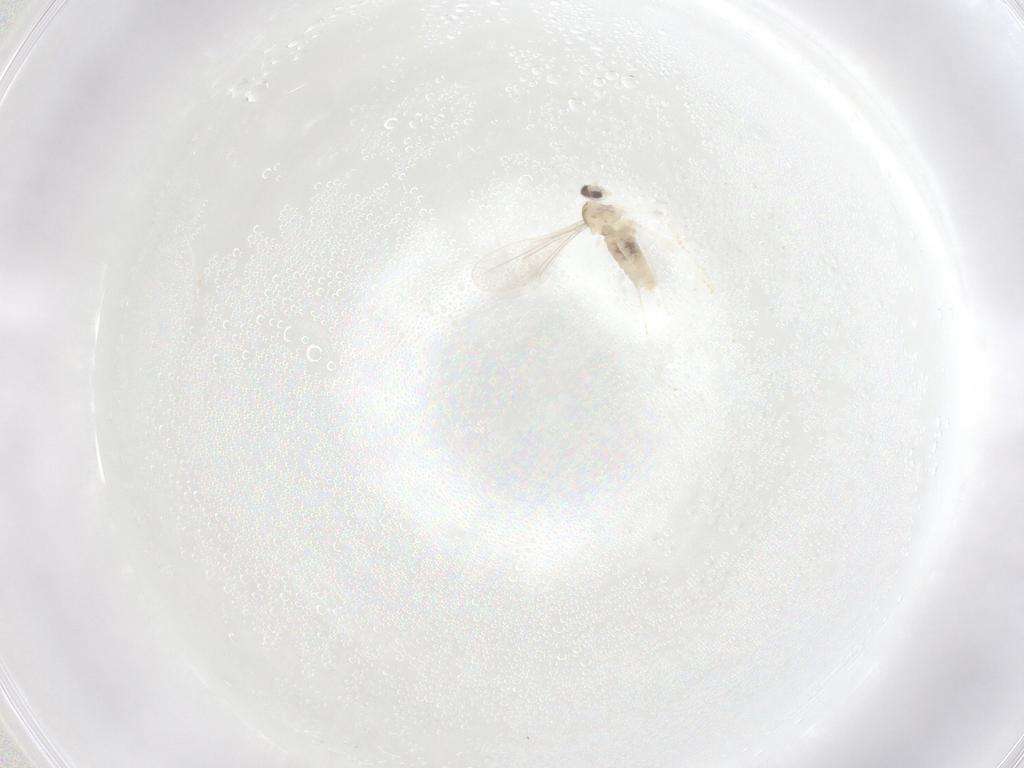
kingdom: Animalia
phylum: Arthropoda
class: Insecta
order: Diptera
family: Cecidomyiidae
